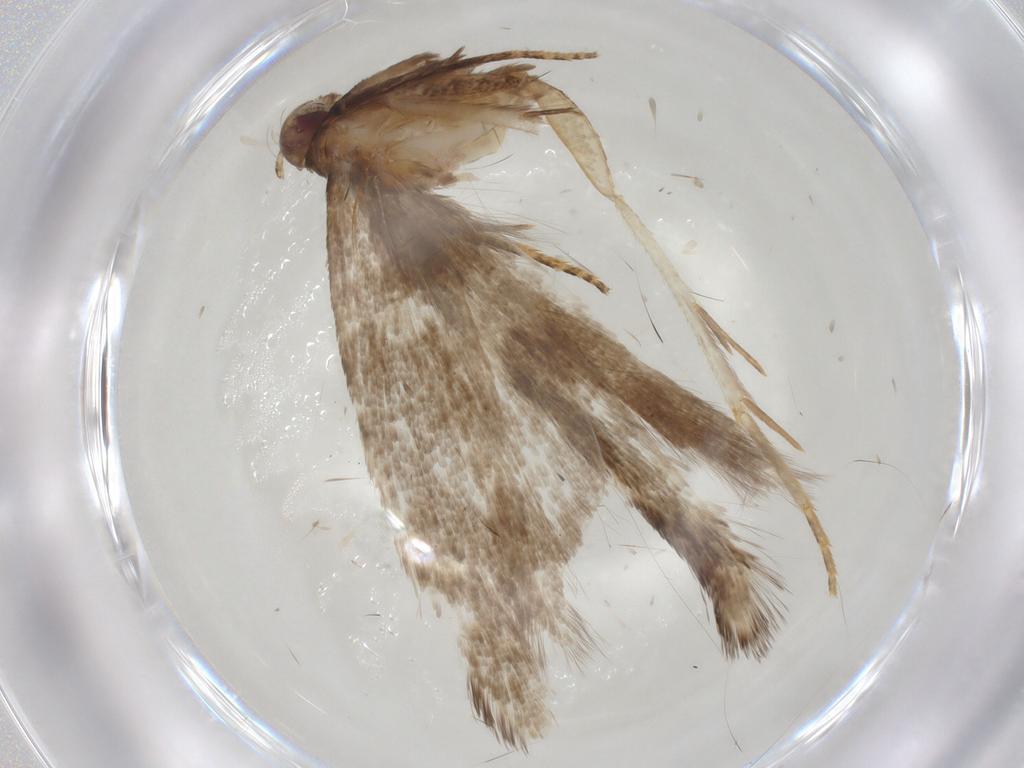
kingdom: Animalia
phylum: Arthropoda
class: Insecta
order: Lepidoptera
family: Gelechiidae
